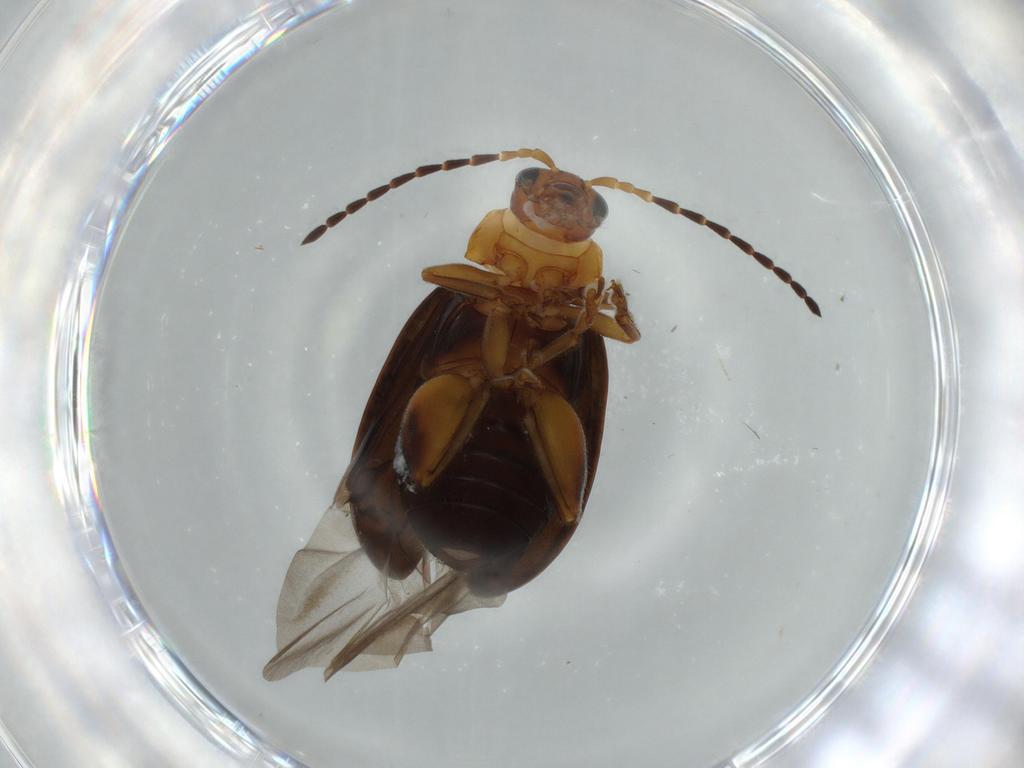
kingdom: Animalia
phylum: Arthropoda
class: Insecta
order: Coleoptera
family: Chrysomelidae
